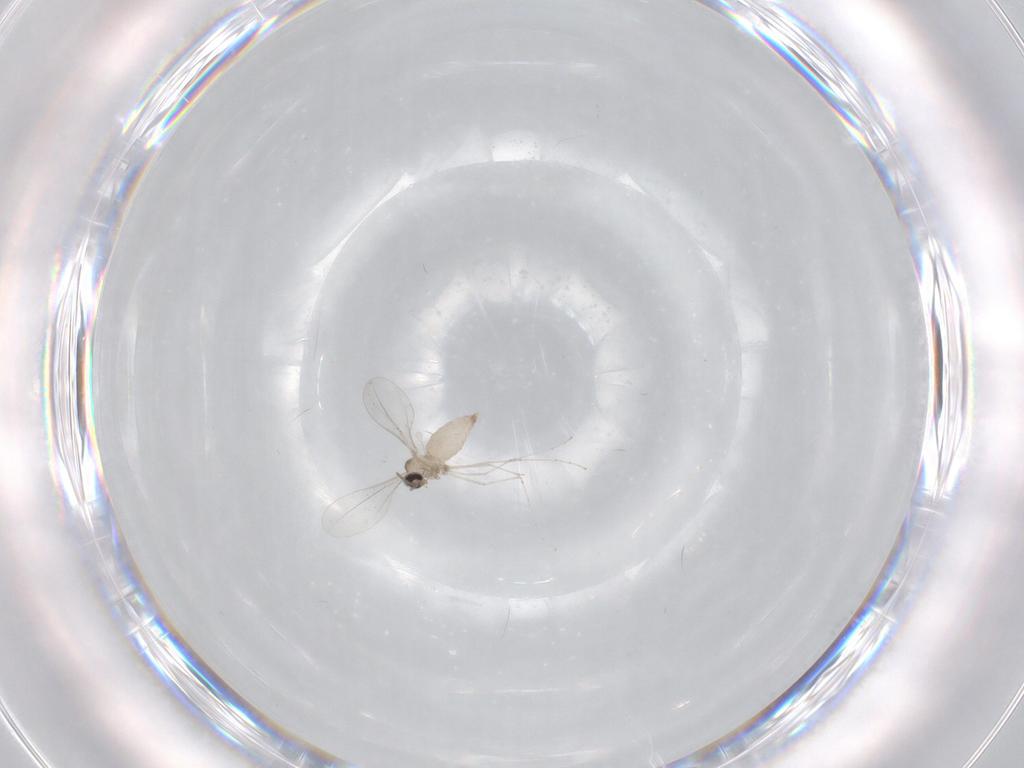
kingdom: Animalia
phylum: Arthropoda
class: Insecta
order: Diptera
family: Cecidomyiidae
